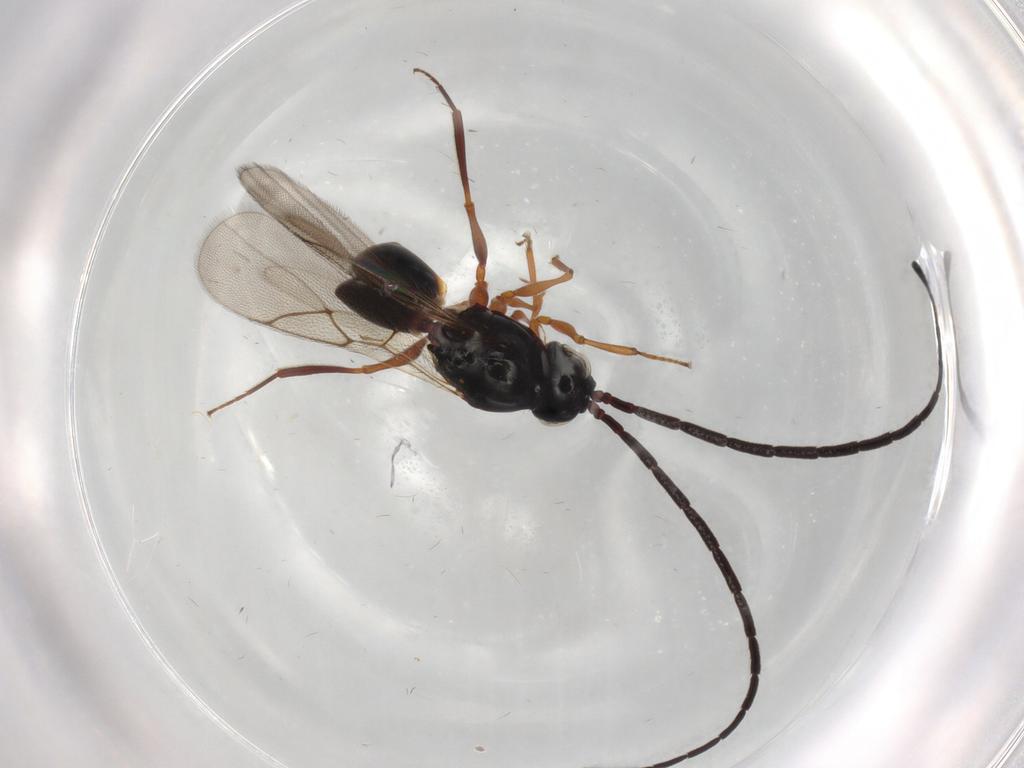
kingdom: Animalia
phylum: Arthropoda
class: Insecta
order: Hymenoptera
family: Figitidae
